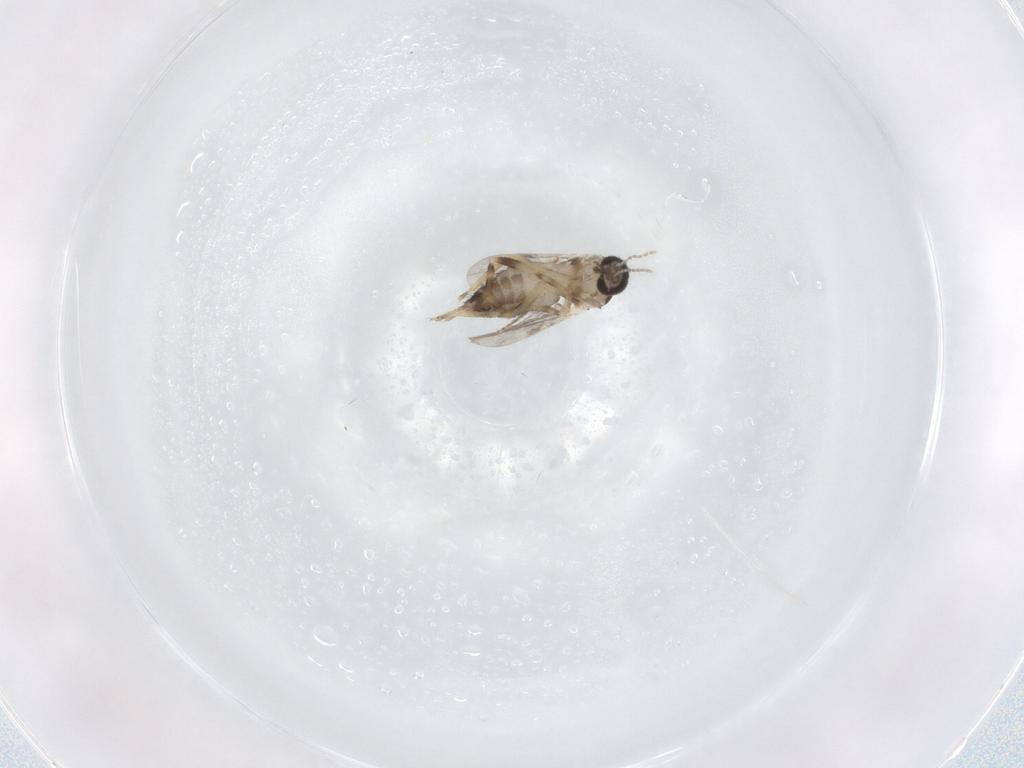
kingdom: Animalia
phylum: Arthropoda
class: Insecta
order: Diptera
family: Ceratopogonidae
